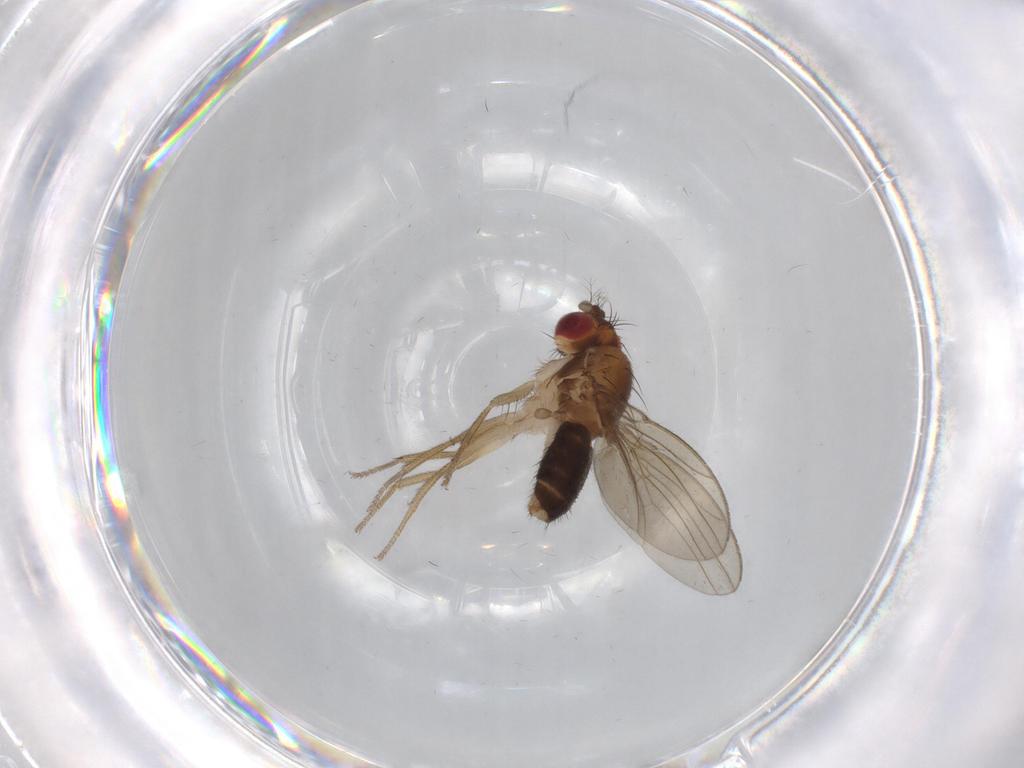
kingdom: Animalia
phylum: Arthropoda
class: Insecta
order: Diptera
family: Drosophilidae
